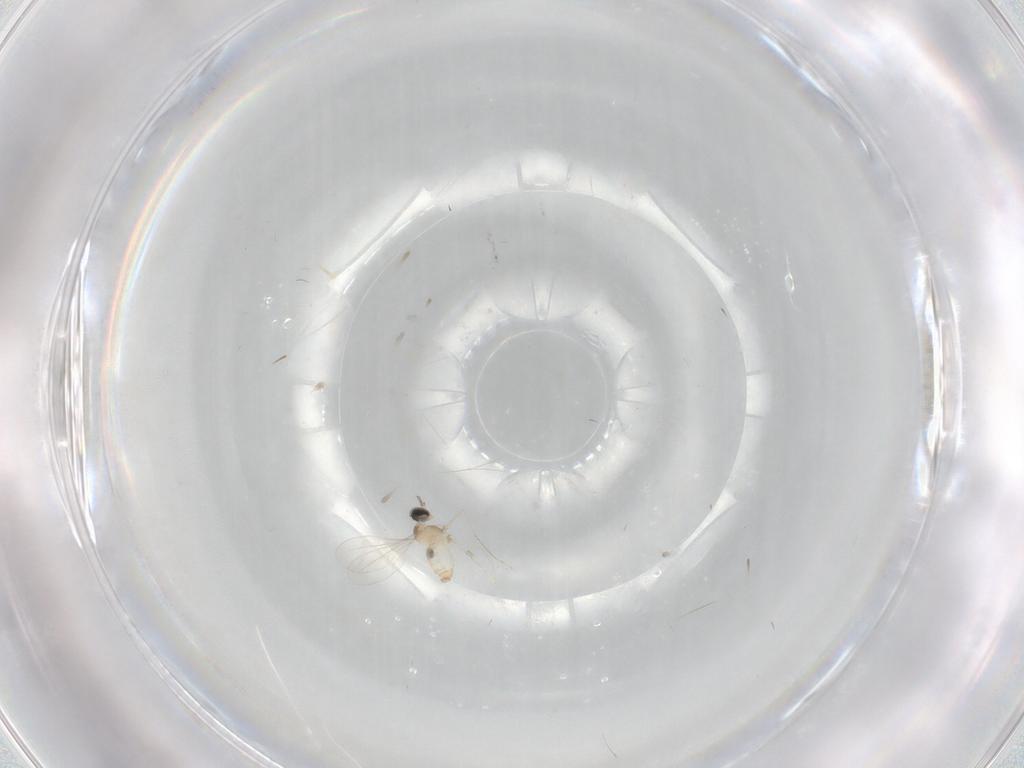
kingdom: Animalia
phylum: Arthropoda
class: Insecta
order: Diptera
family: Cecidomyiidae
